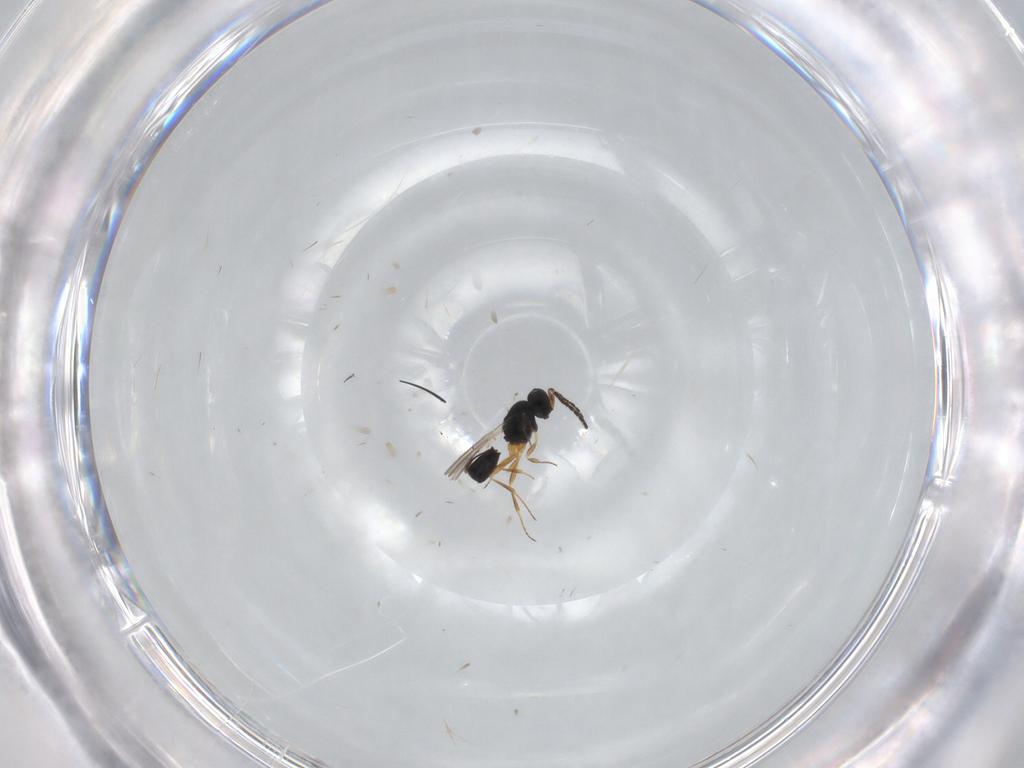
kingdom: Animalia
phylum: Arthropoda
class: Insecta
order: Hymenoptera
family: Scelionidae
